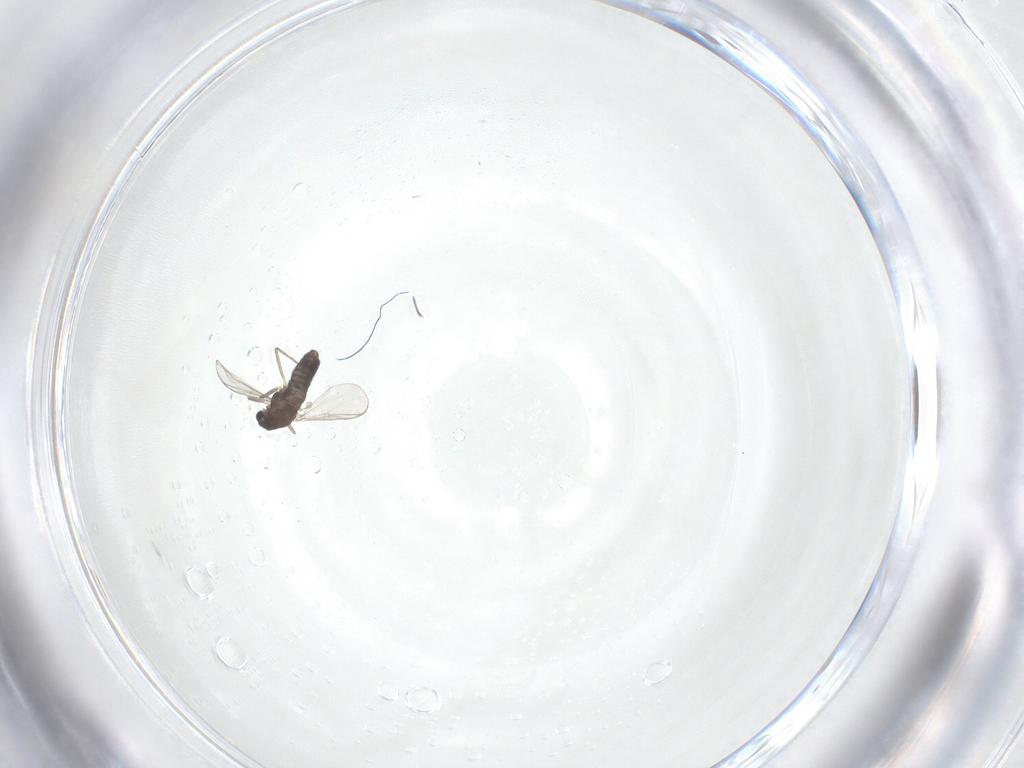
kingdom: Animalia
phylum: Arthropoda
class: Insecta
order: Diptera
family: Chironomidae
